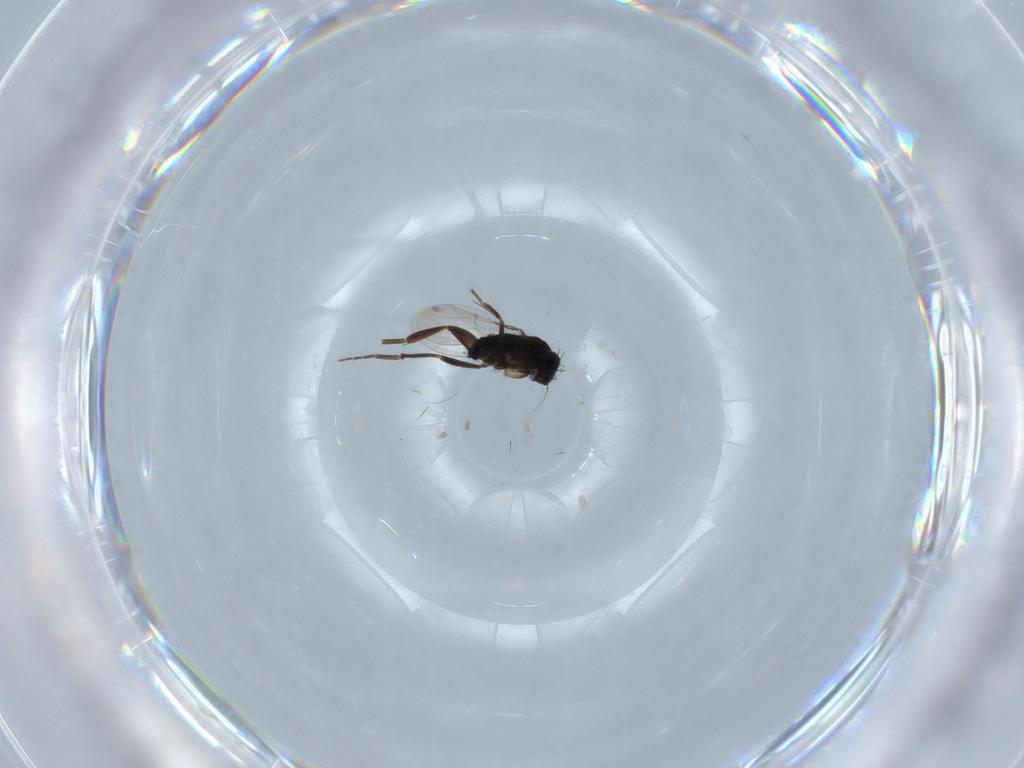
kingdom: Animalia
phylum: Arthropoda
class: Insecta
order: Diptera
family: Phoridae
